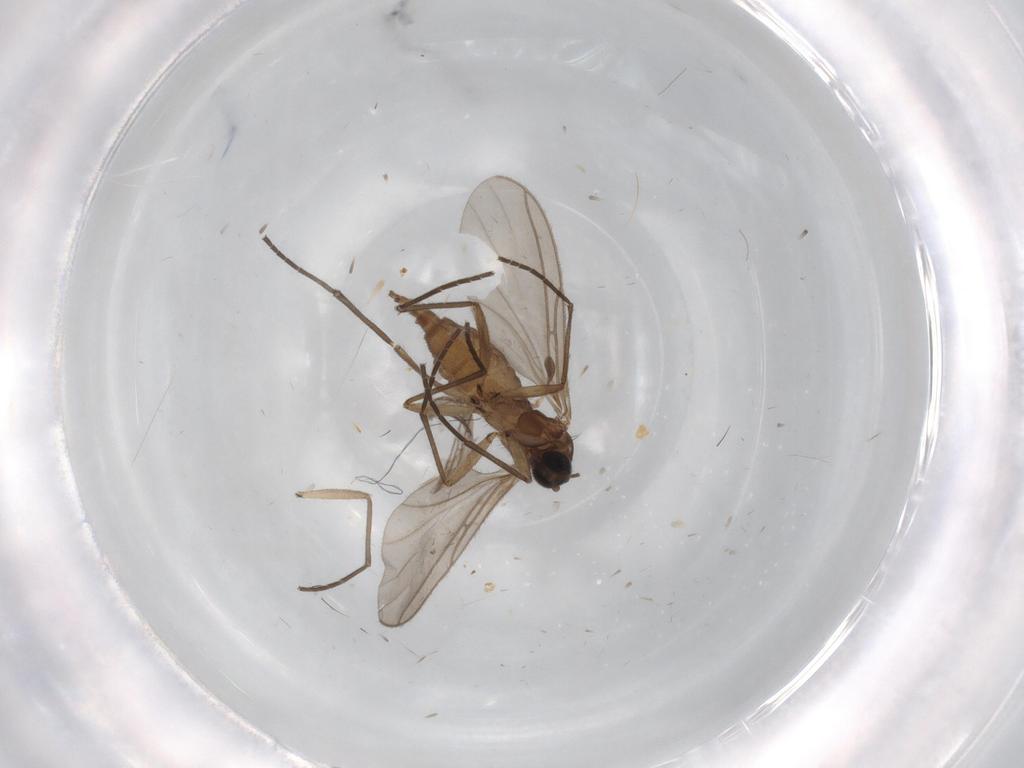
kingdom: Animalia
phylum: Arthropoda
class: Insecta
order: Diptera
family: Sciaridae
